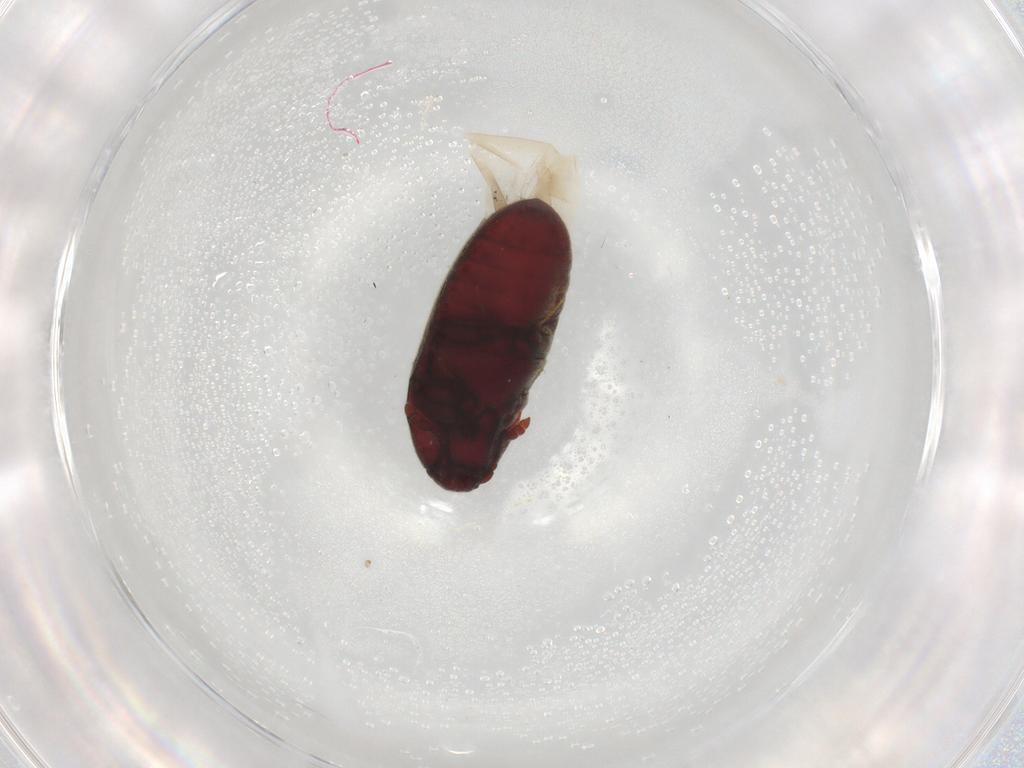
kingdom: Animalia
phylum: Arthropoda
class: Insecta
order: Coleoptera
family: Throscidae
